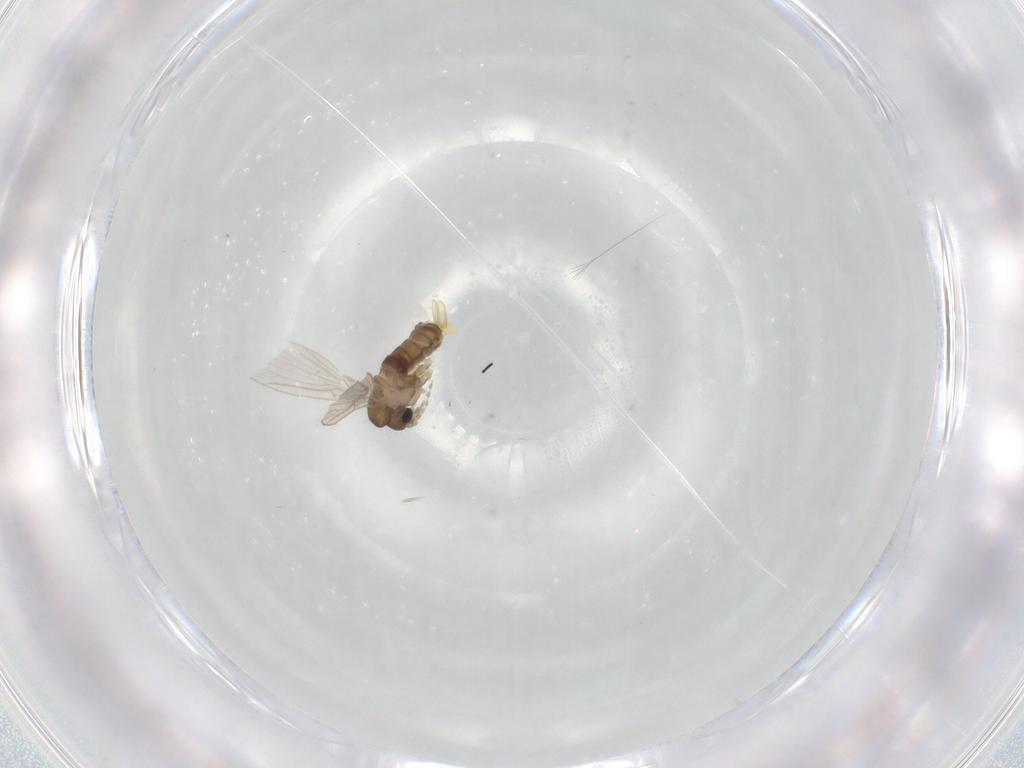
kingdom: Animalia
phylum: Arthropoda
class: Insecta
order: Diptera
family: Psychodidae
